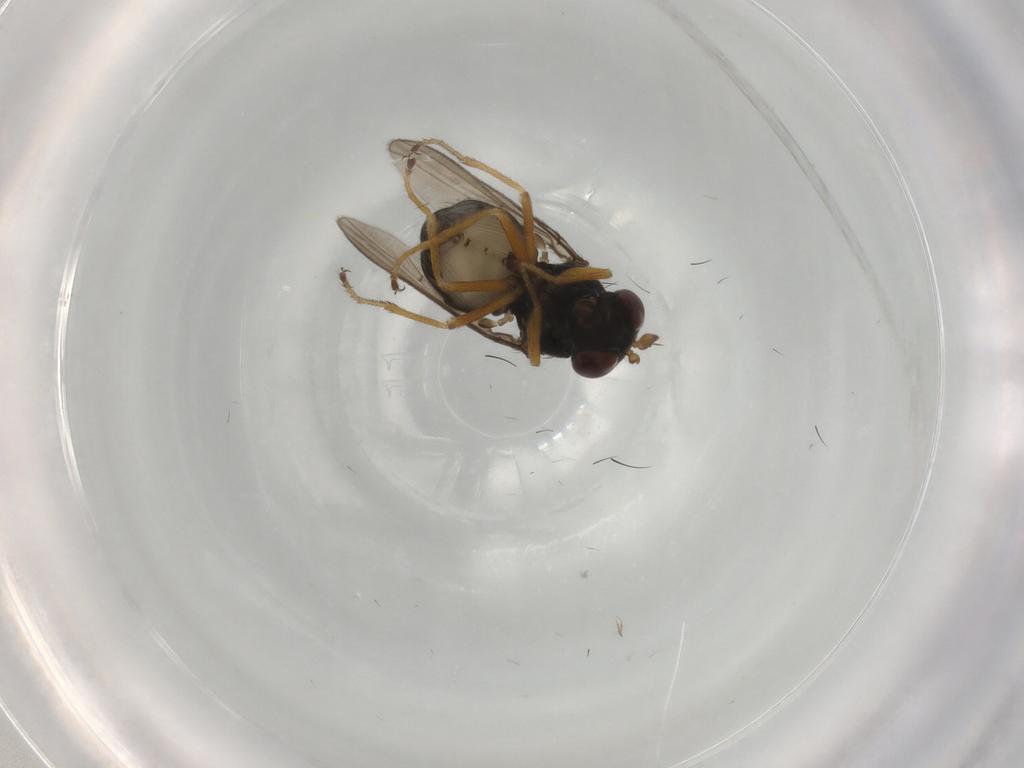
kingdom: Animalia
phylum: Arthropoda
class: Insecta
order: Diptera
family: Ephydridae
